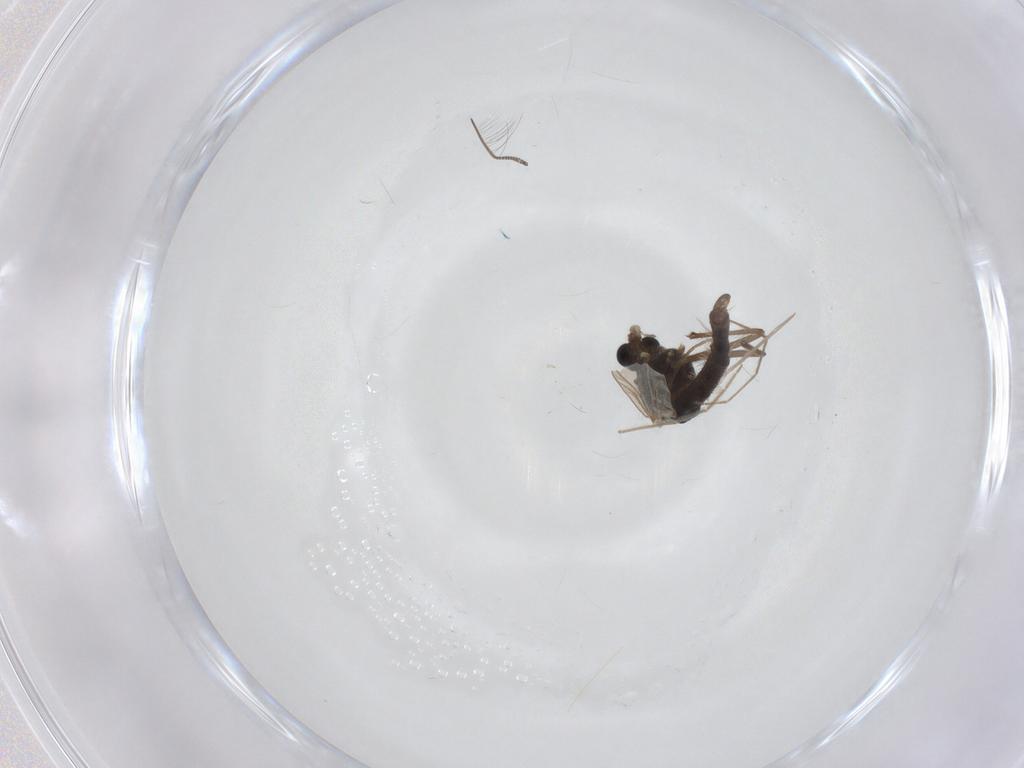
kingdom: Animalia
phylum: Arthropoda
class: Insecta
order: Diptera
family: Chironomidae
